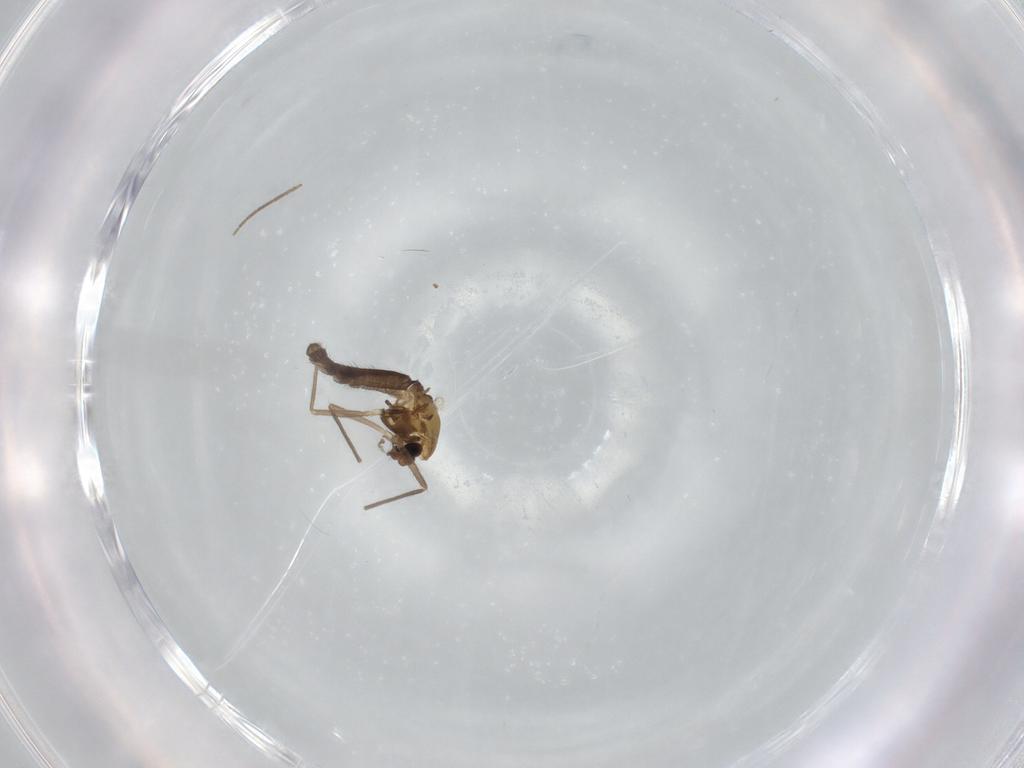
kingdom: Animalia
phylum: Arthropoda
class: Insecta
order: Diptera
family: Chironomidae
